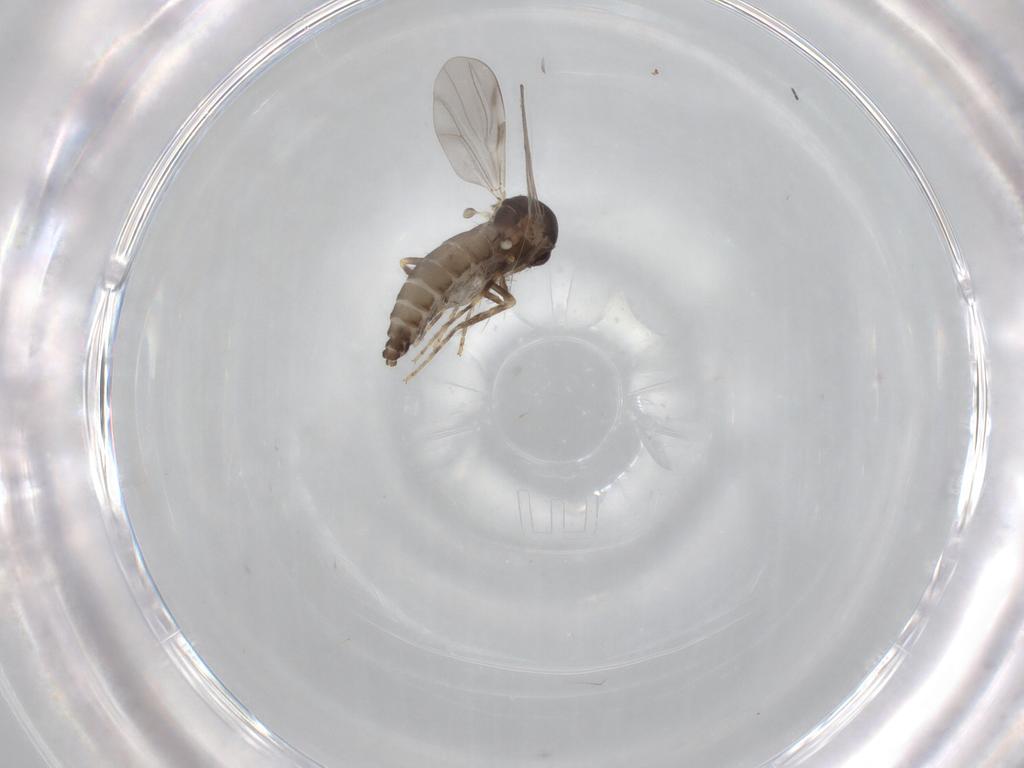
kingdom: Animalia
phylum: Arthropoda
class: Insecta
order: Diptera
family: Ceratopogonidae
